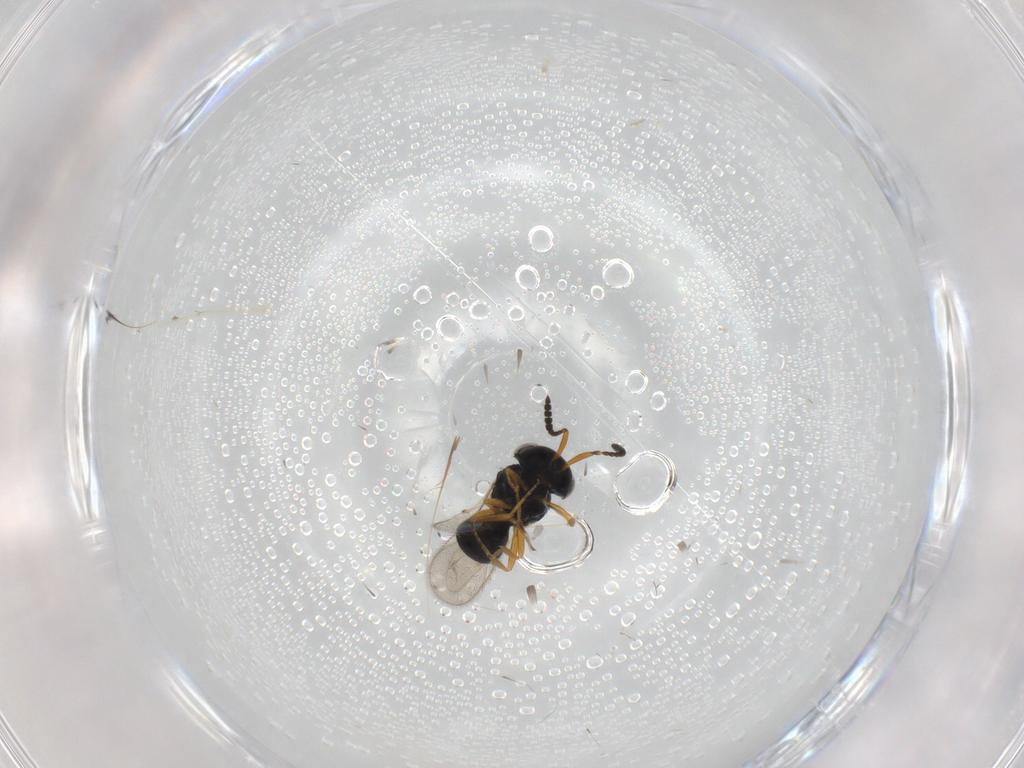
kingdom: Animalia
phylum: Arthropoda
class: Insecta
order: Hymenoptera
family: Scelionidae
